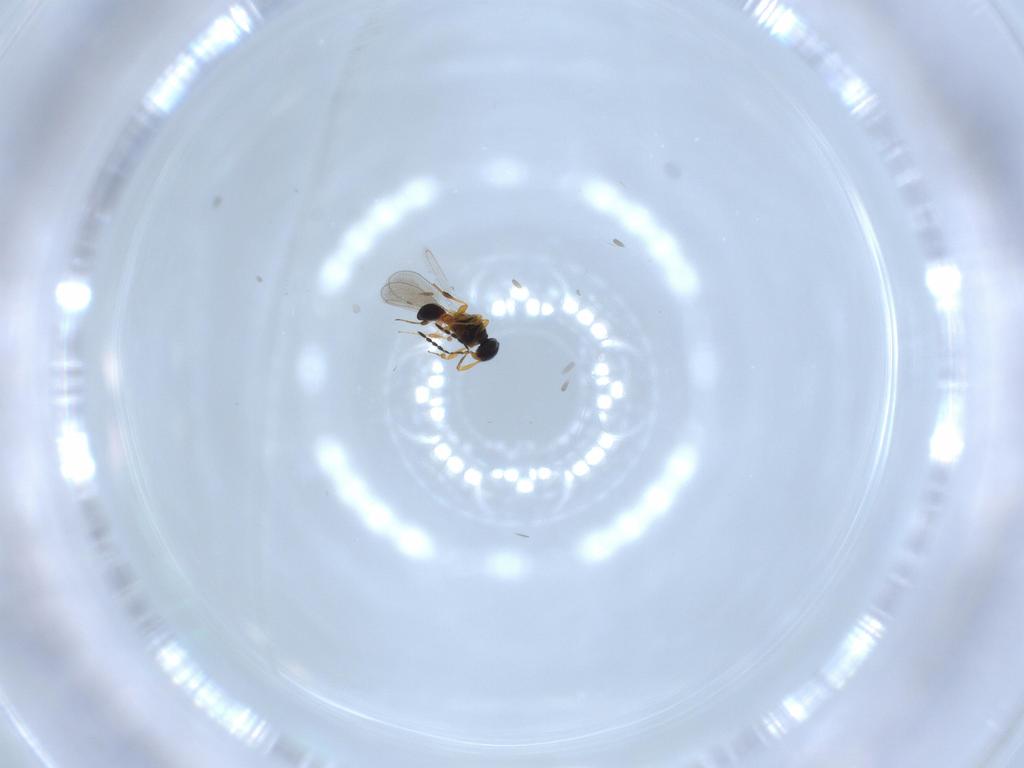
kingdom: Animalia
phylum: Arthropoda
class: Insecta
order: Hymenoptera
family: Platygastridae
